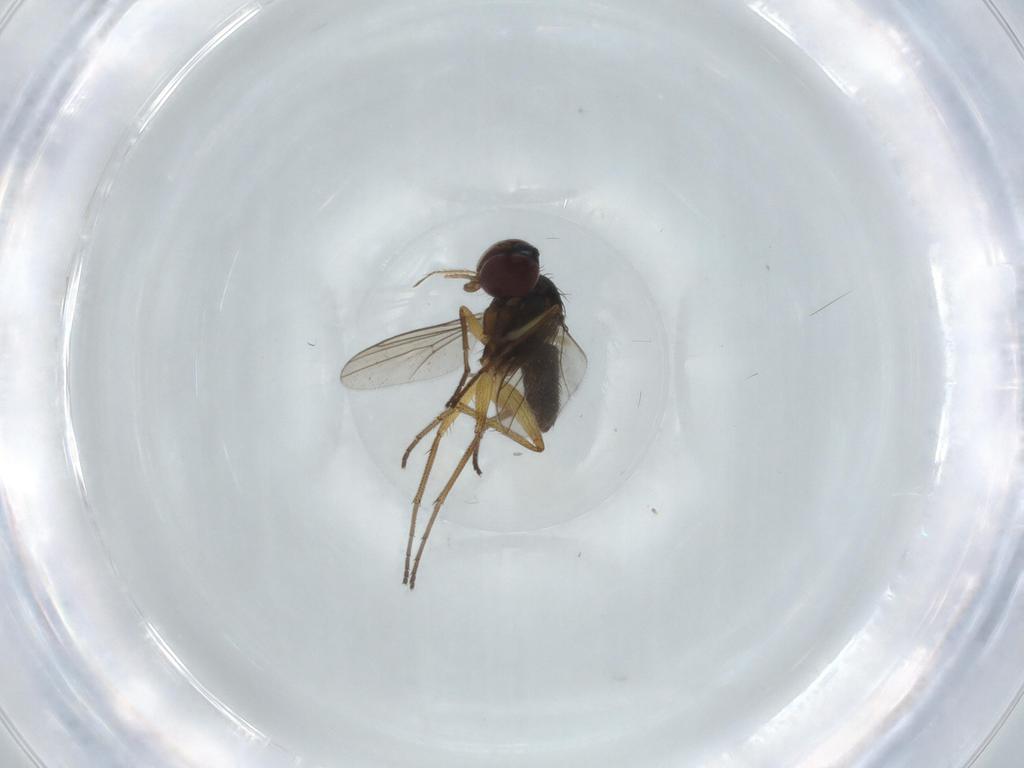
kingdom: Animalia
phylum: Arthropoda
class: Insecta
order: Diptera
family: Dolichopodidae
